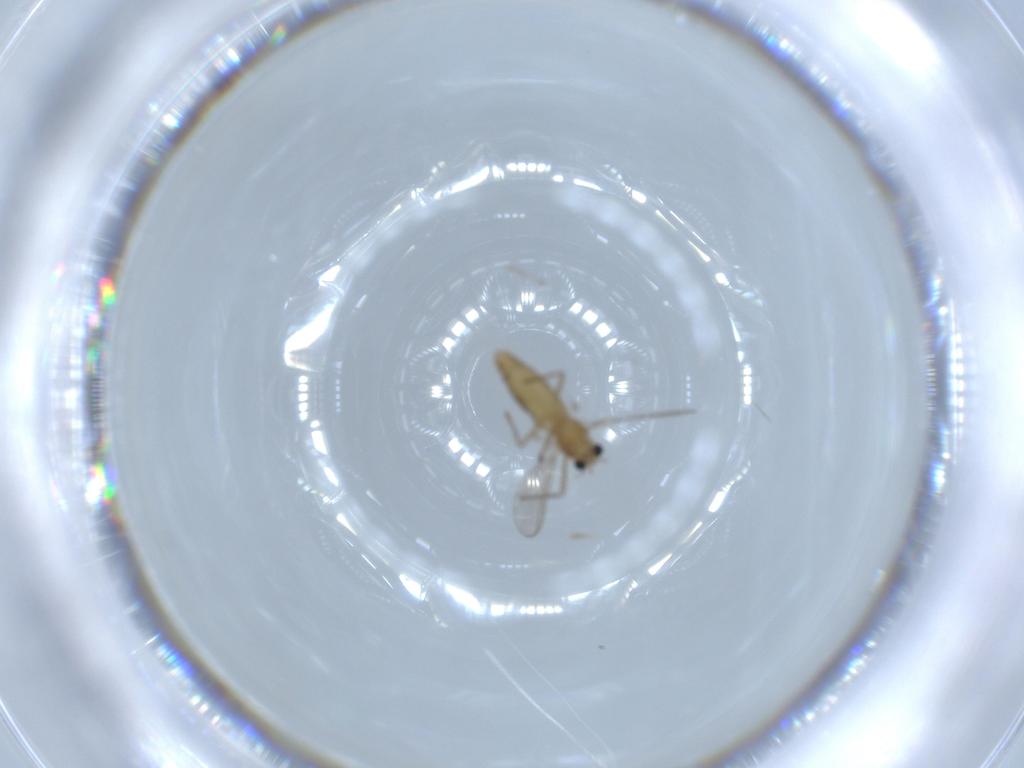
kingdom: Animalia
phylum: Arthropoda
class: Insecta
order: Diptera
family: Chironomidae
